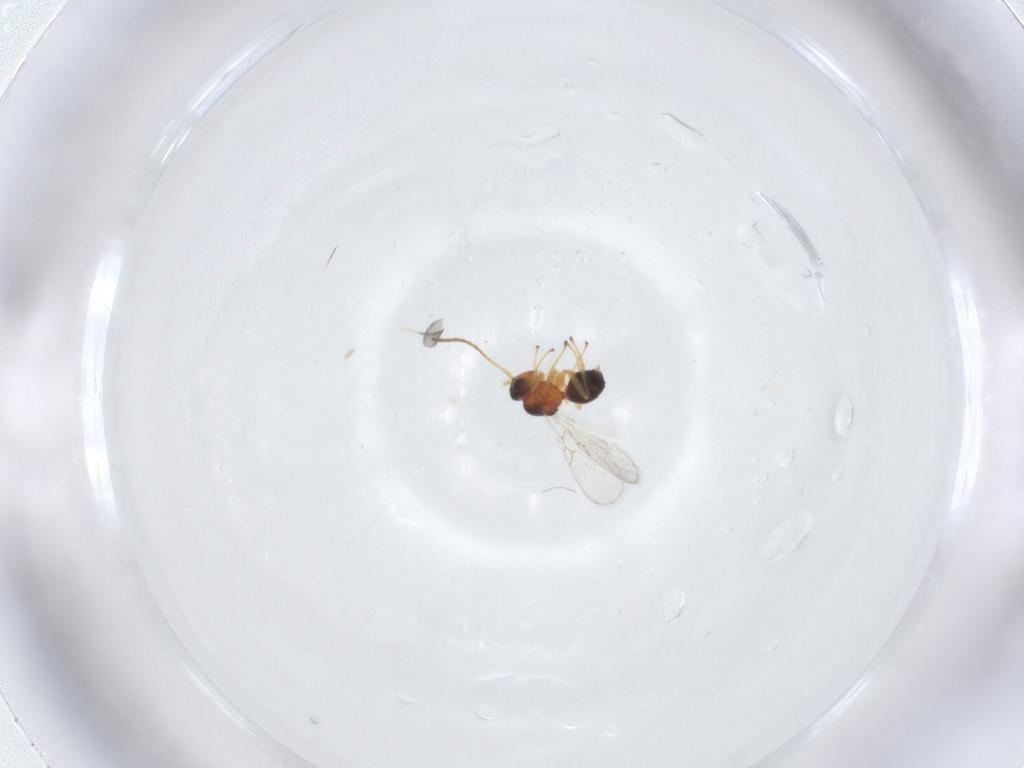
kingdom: Animalia
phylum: Arthropoda
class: Insecta
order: Hymenoptera
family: Figitidae
